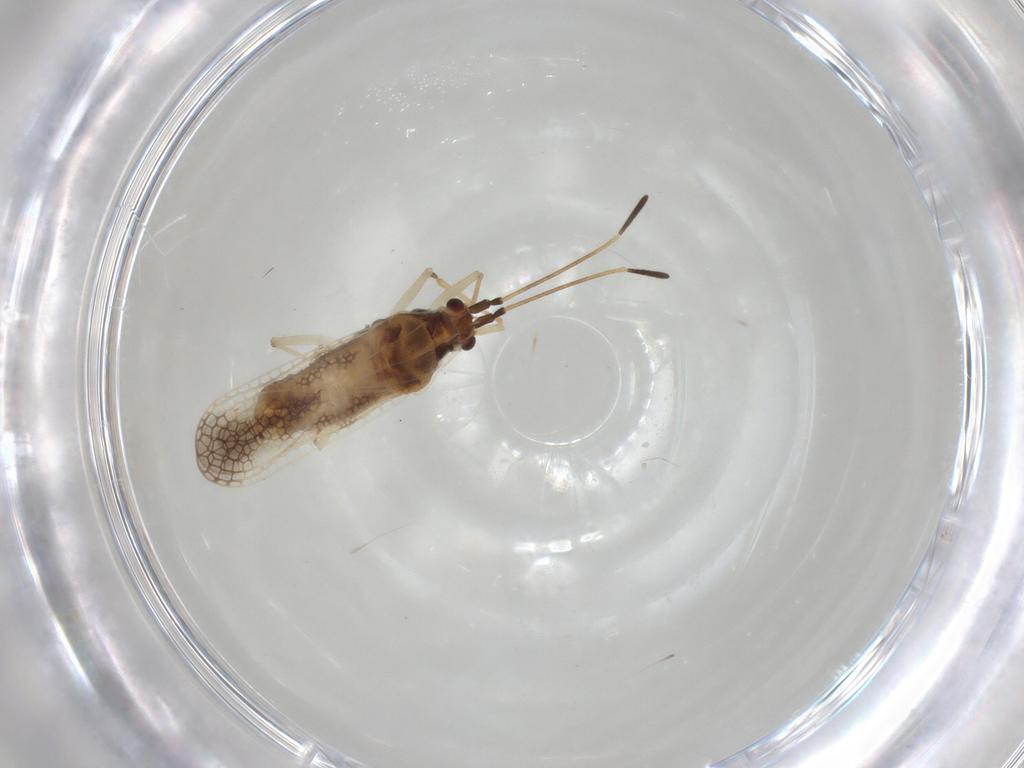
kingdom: Animalia
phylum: Arthropoda
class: Insecta
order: Hemiptera
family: Tingidae
